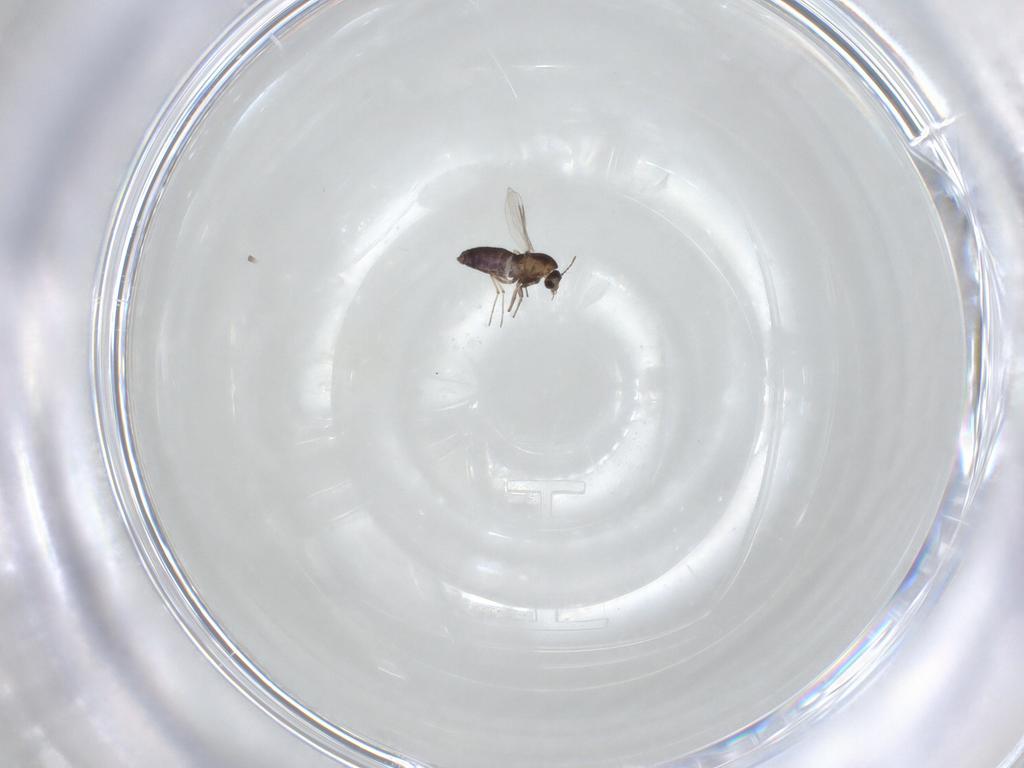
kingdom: Animalia
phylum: Arthropoda
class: Insecta
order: Diptera
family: Chironomidae
